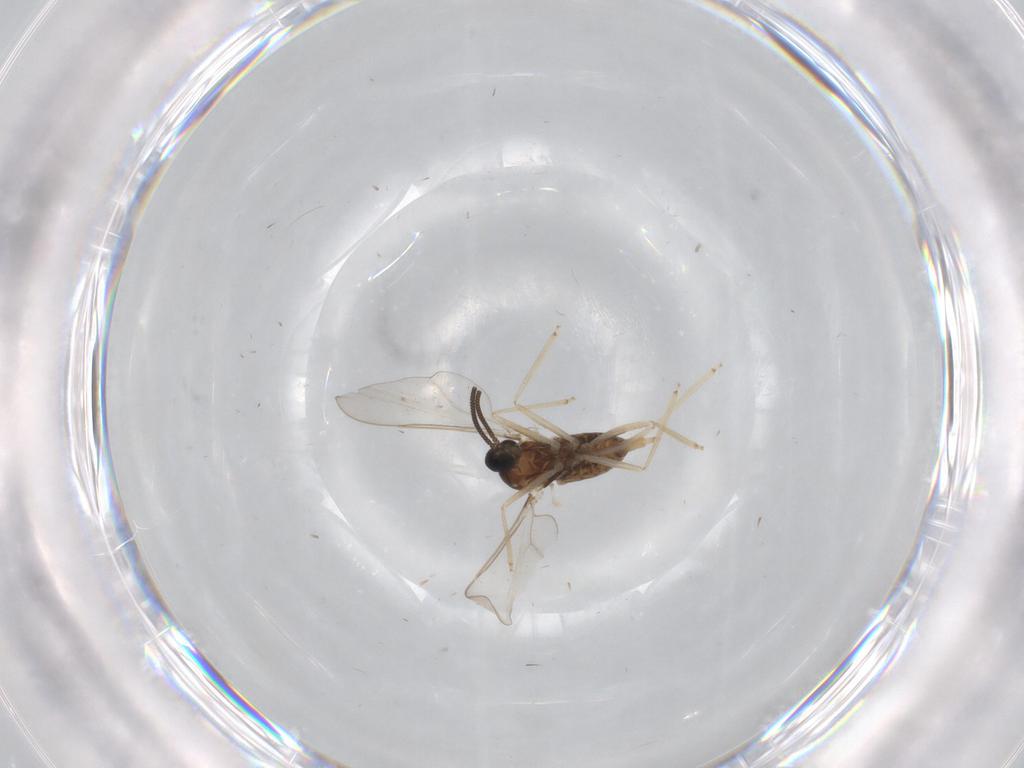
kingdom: Animalia
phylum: Arthropoda
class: Insecta
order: Diptera
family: Cecidomyiidae
